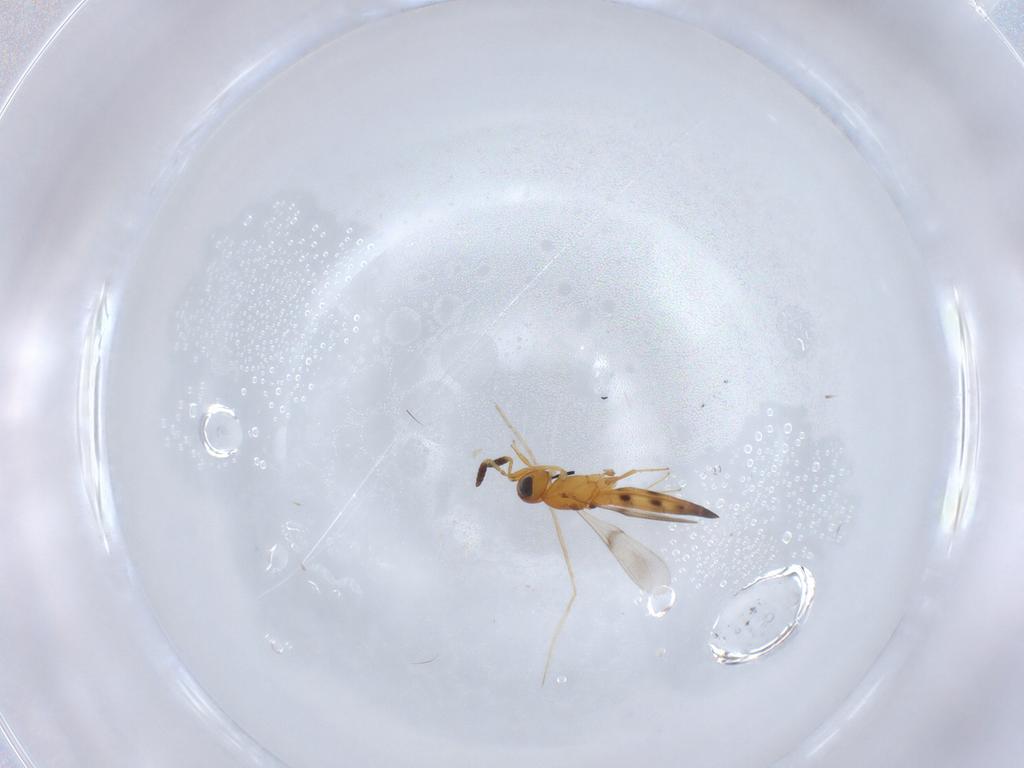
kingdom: Animalia
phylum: Arthropoda
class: Insecta
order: Hymenoptera
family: Scelionidae
